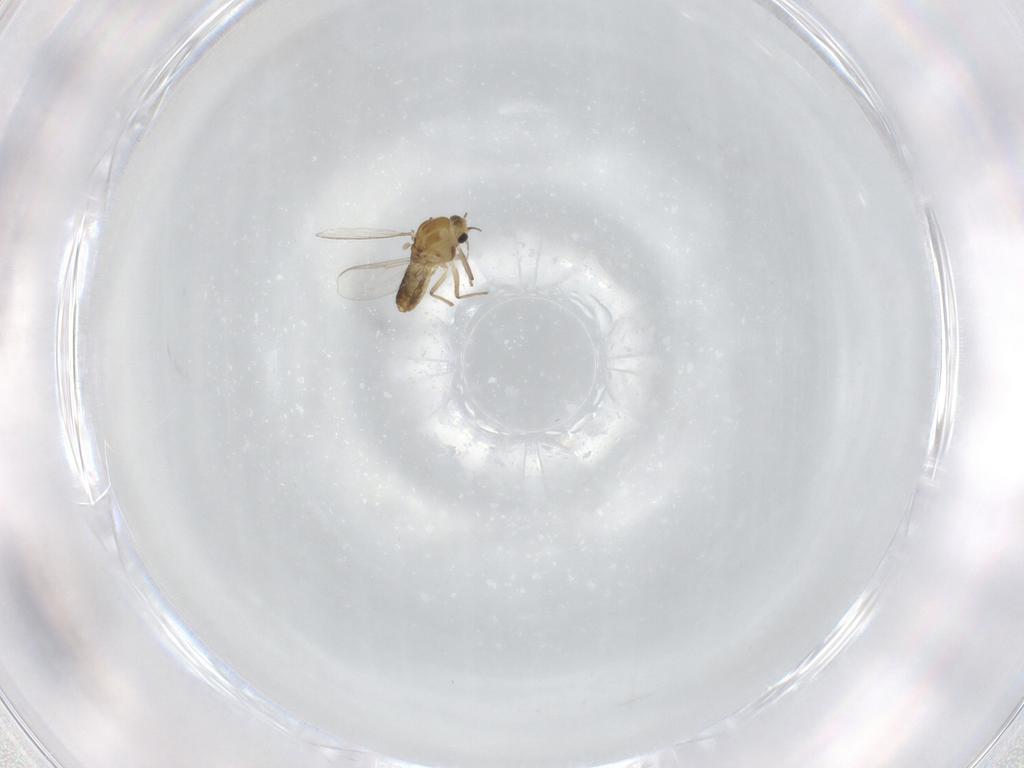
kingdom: Animalia
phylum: Arthropoda
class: Insecta
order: Diptera
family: Chironomidae
